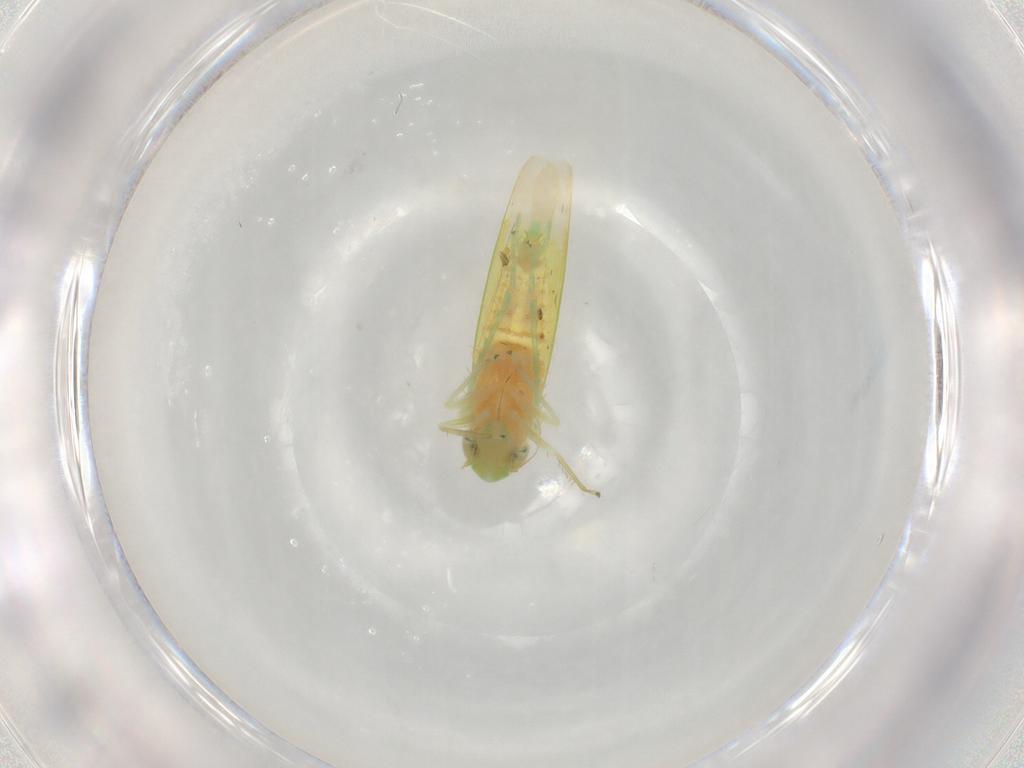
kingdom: Animalia
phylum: Arthropoda
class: Insecta
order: Hemiptera
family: Cicadellidae
